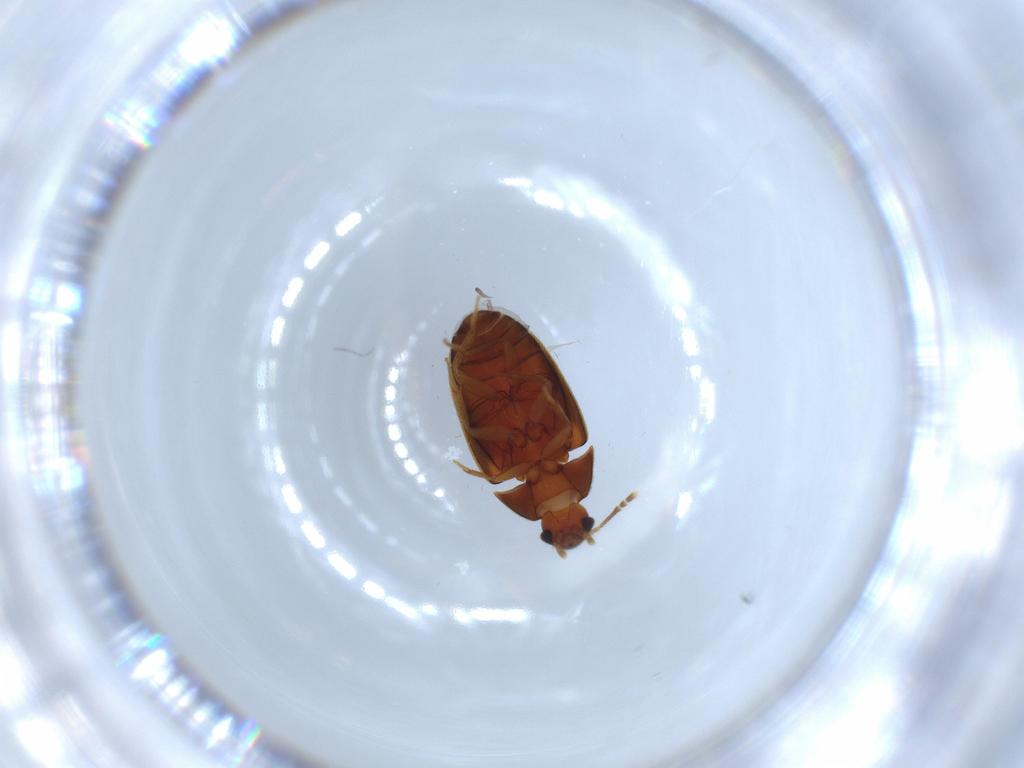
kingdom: Animalia
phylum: Arthropoda
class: Insecta
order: Coleoptera
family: Mycetophagidae
